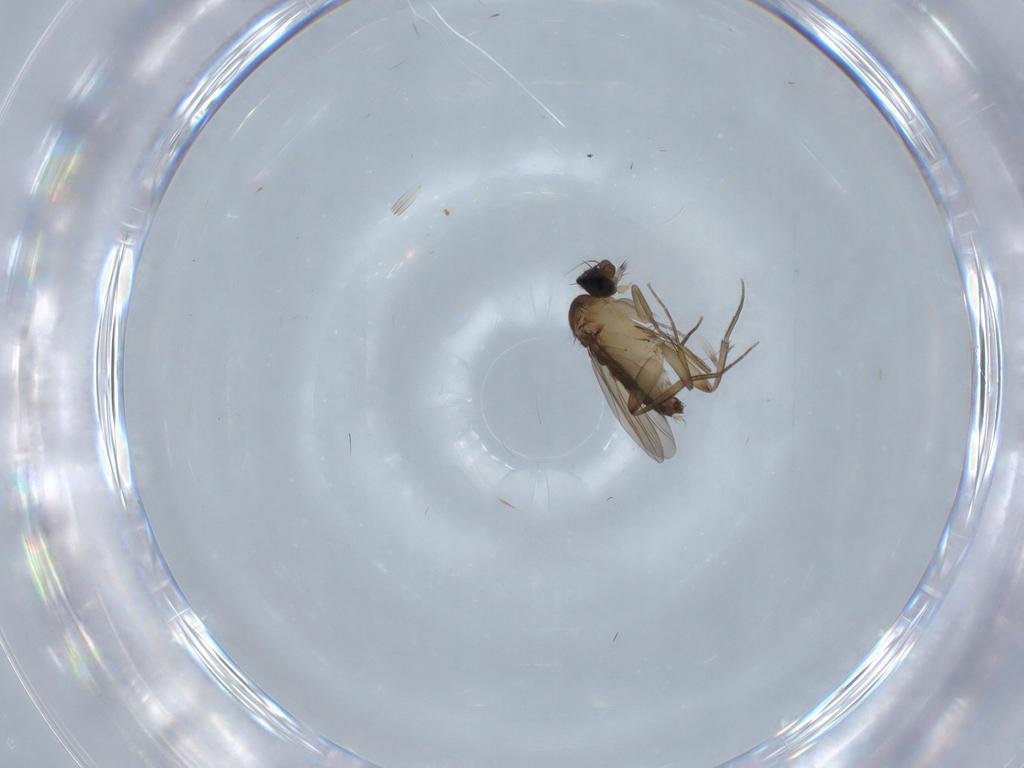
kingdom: Animalia
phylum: Arthropoda
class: Insecta
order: Diptera
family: Phoridae
